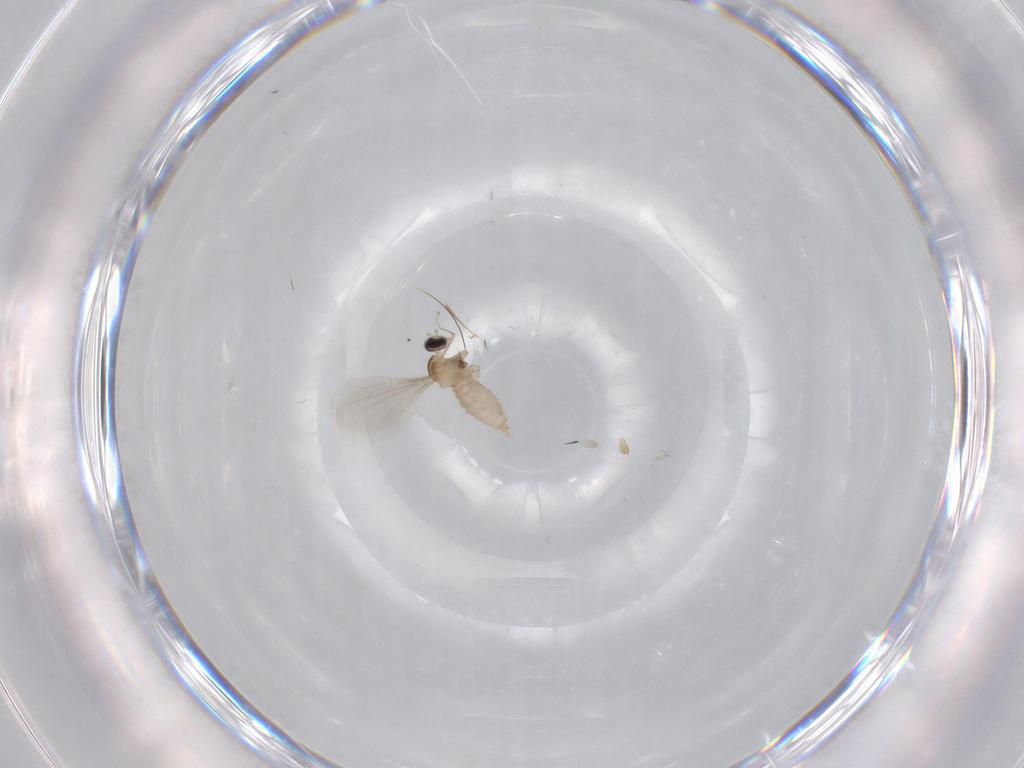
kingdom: Animalia
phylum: Arthropoda
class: Insecta
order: Diptera
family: Cecidomyiidae
